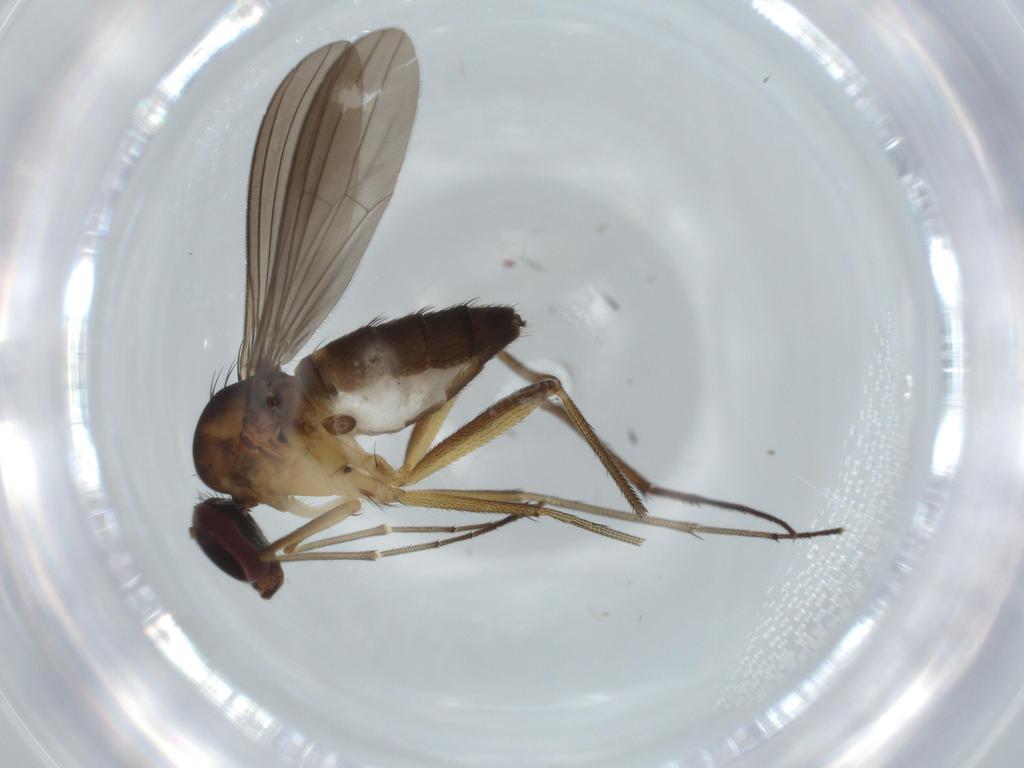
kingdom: Animalia
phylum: Arthropoda
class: Insecta
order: Diptera
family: Dolichopodidae
